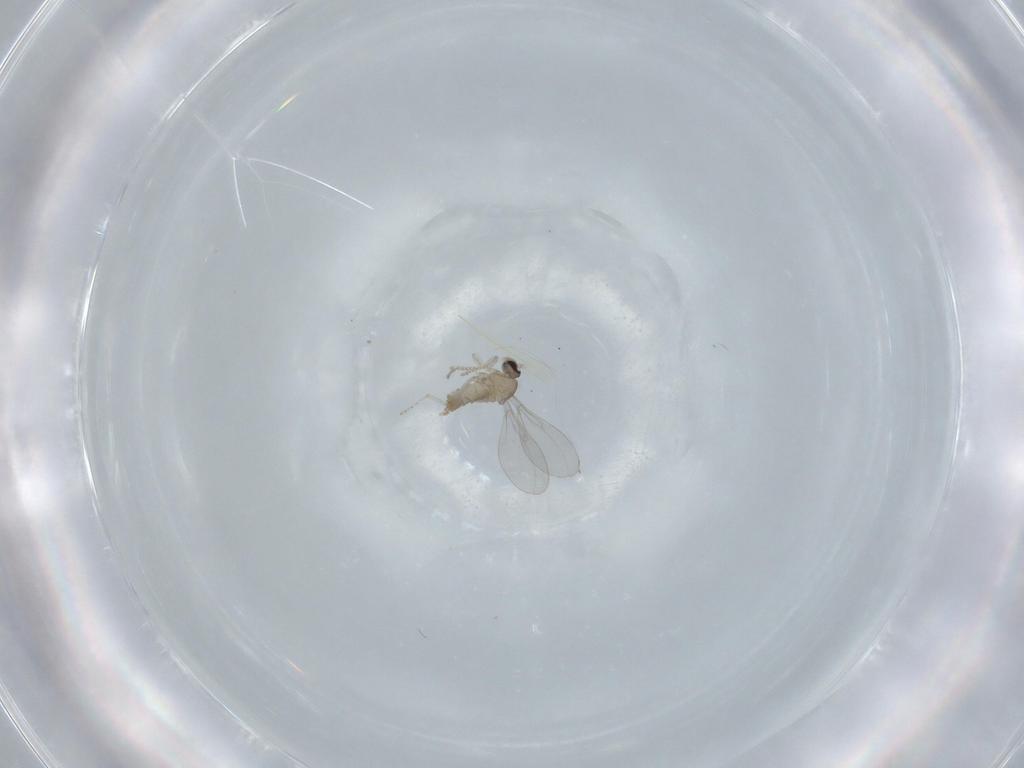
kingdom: Animalia
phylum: Arthropoda
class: Insecta
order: Diptera
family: Cecidomyiidae
